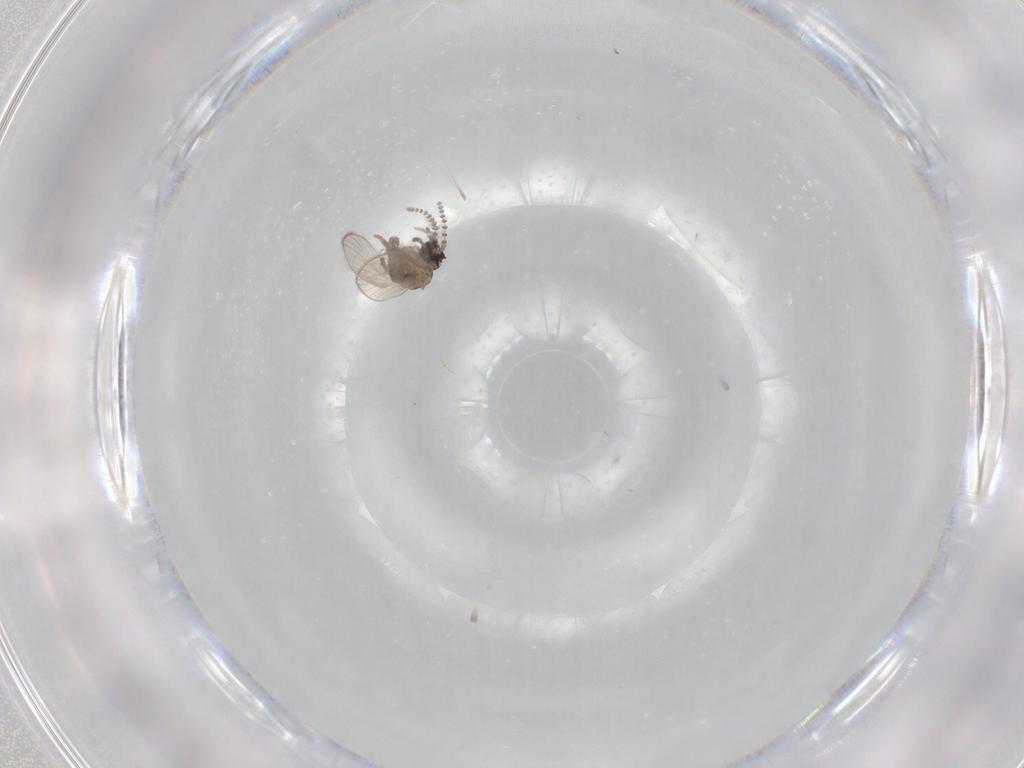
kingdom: Animalia
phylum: Arthropoda
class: Insecta
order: Diptera
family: Psychodidae
